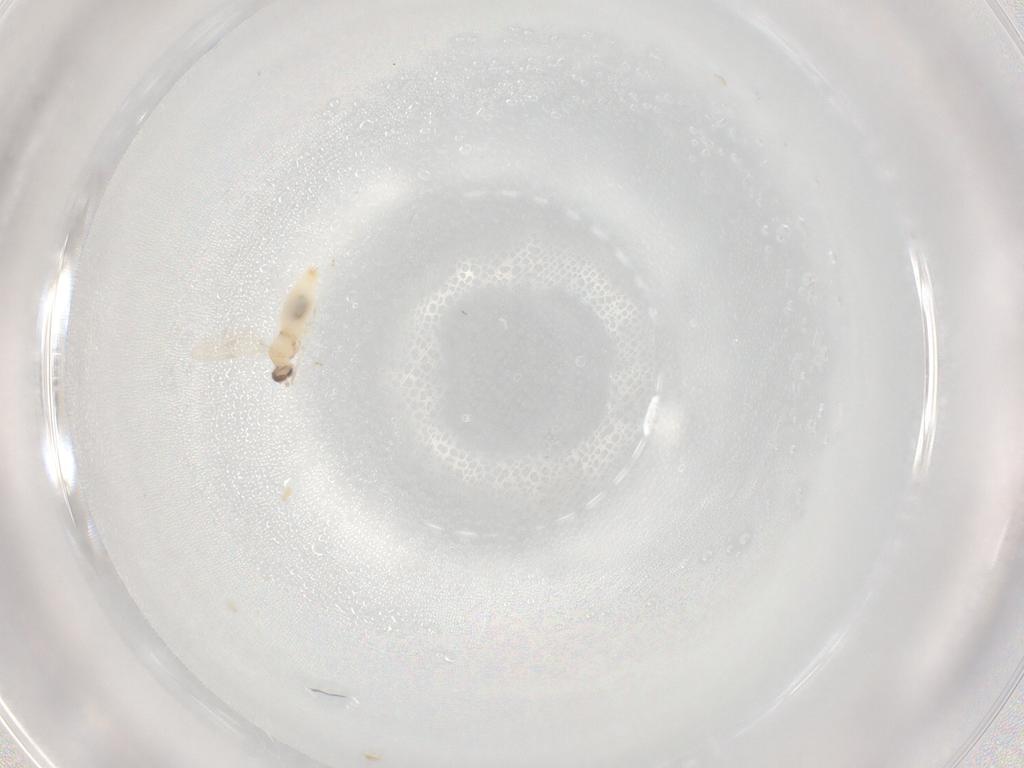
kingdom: Animalia
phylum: Arthropoda
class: Insecta
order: Diptera
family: Cecidomyiidae
